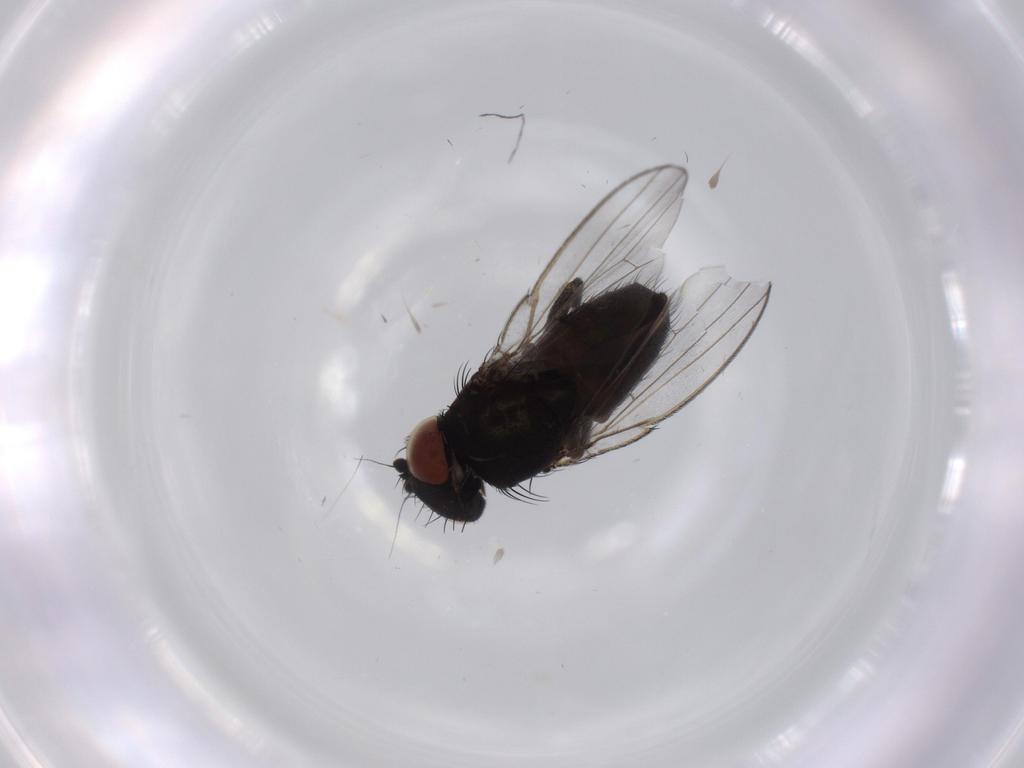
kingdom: Animalia
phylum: Arthropoda
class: Insecta
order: Diptera
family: Milichiidae
